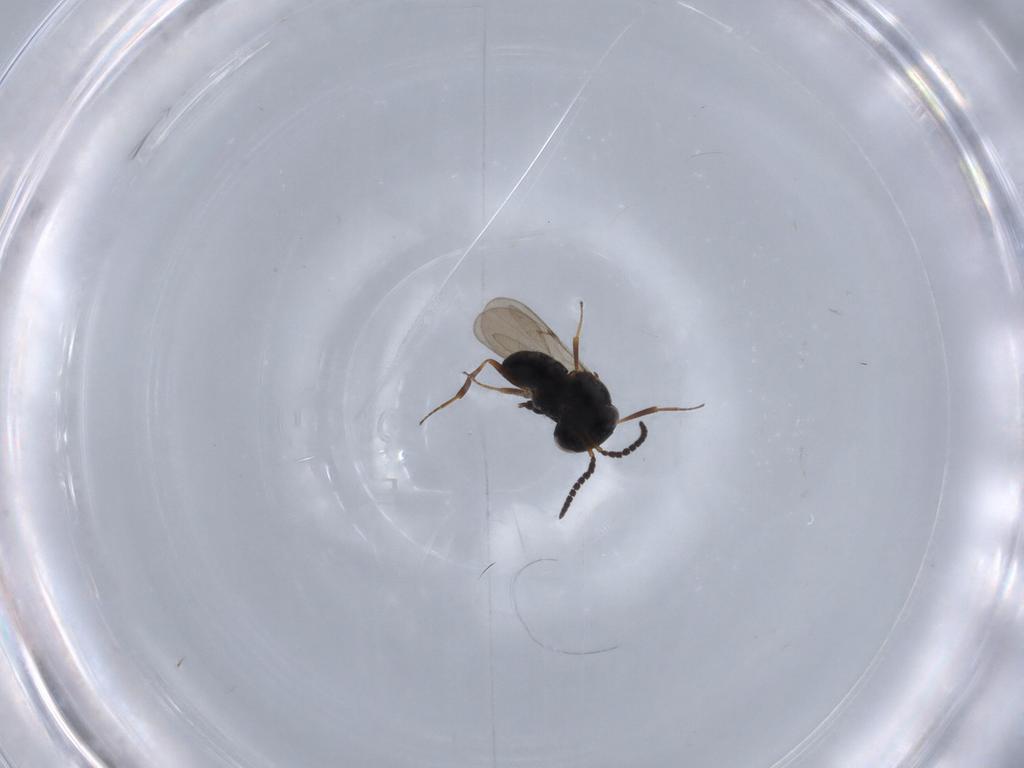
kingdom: Animalia
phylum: Arthropoda
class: Insecta
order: Hymenoptera
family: Scelionidae
